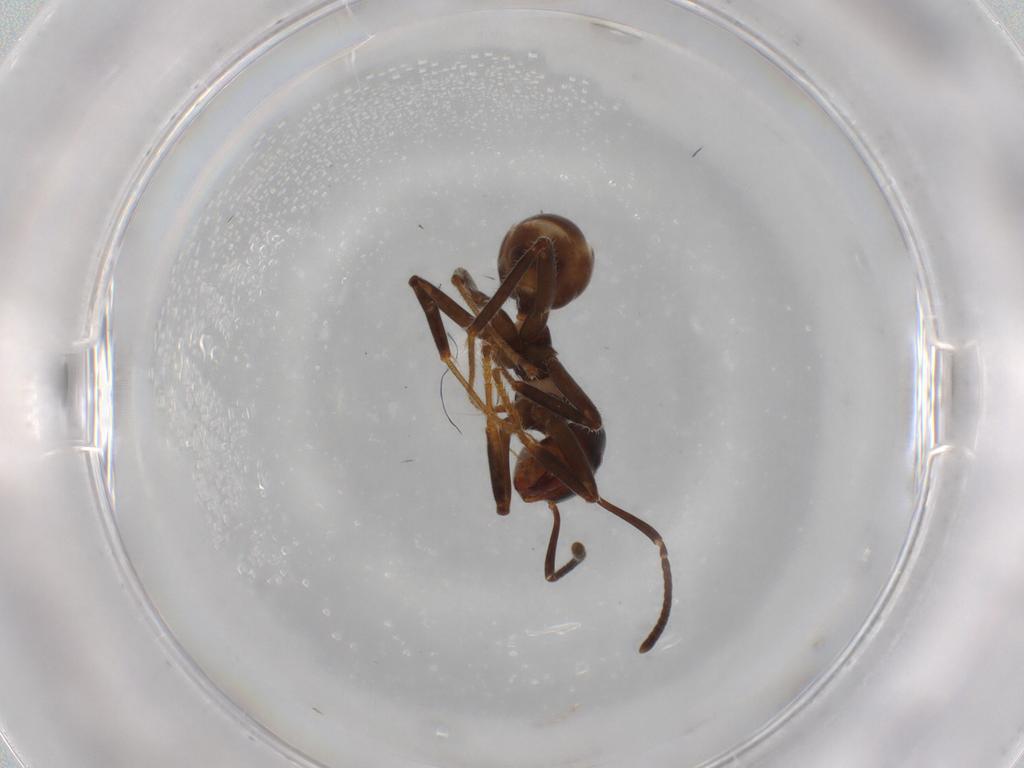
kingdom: Animalia
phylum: Arthropoda
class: Insecta
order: Hymenoptera
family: Formicidae
